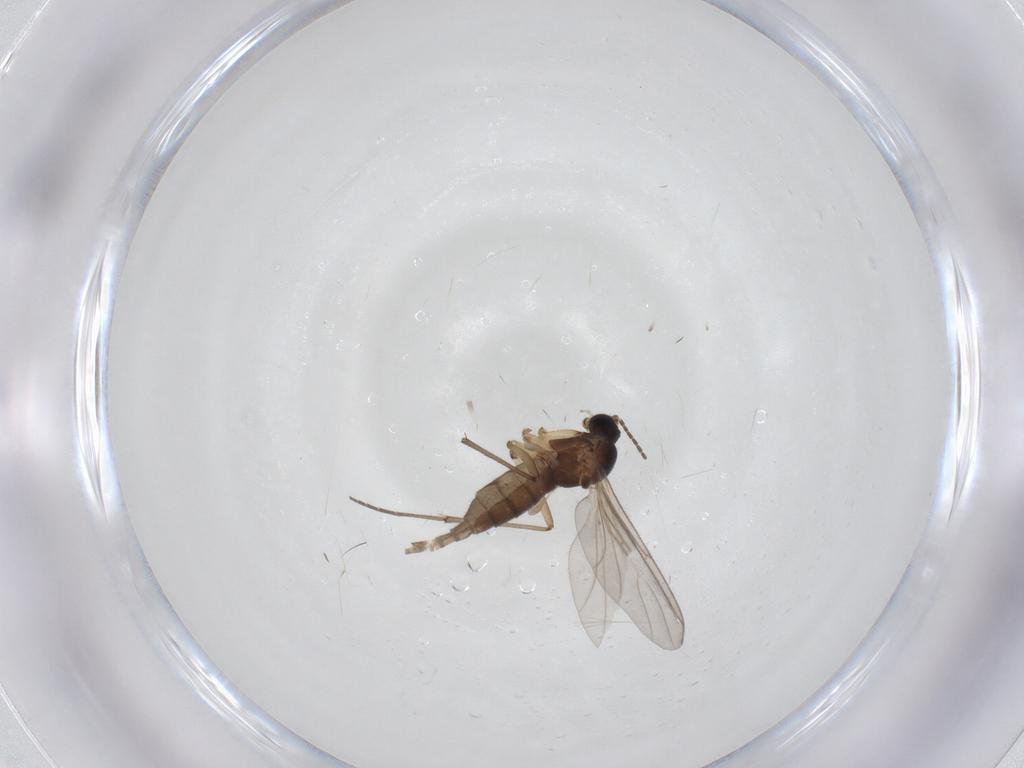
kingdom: Animalia
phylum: Arthropoda
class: Insecta
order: Diptera
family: Sciaridae
